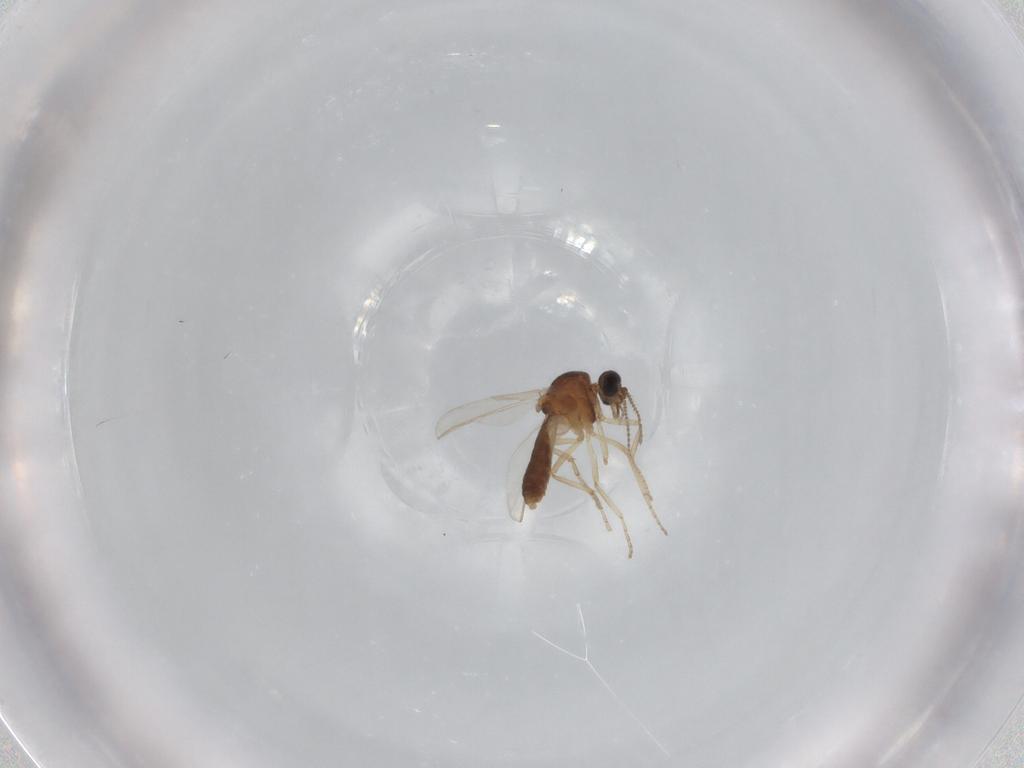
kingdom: Animalia
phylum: Arthropoda
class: Insecta
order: Diptera
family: Ceratopogonidae
